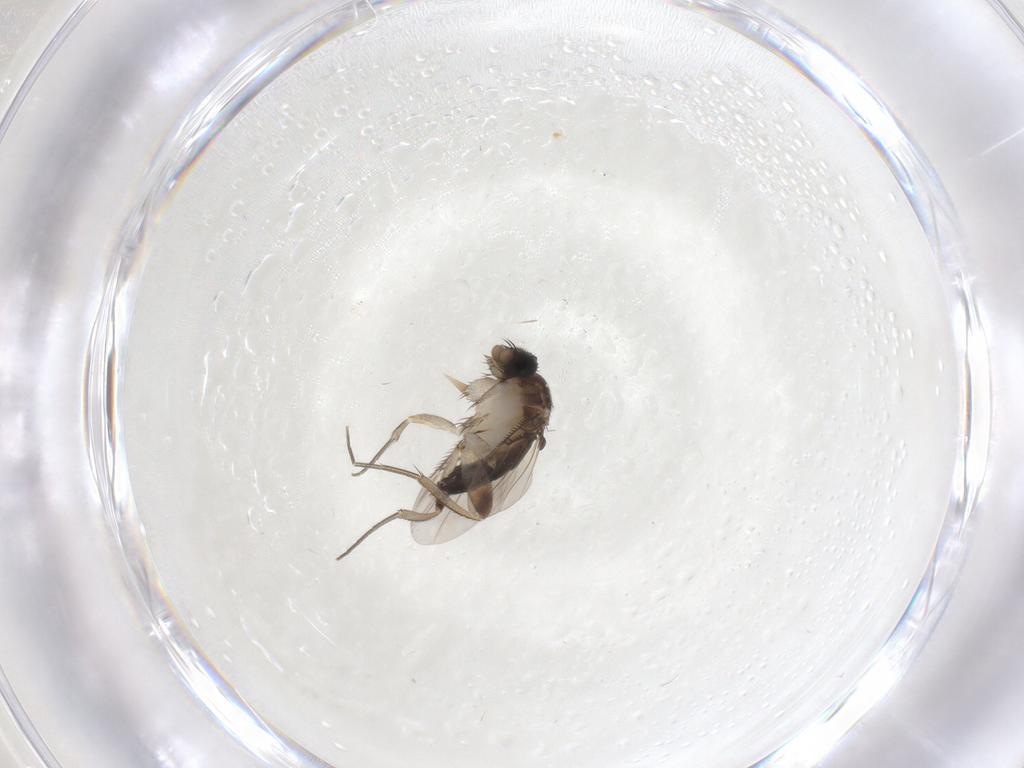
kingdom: Animalia
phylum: Arthropoda
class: Insecta
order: Diptera
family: Phoridae
